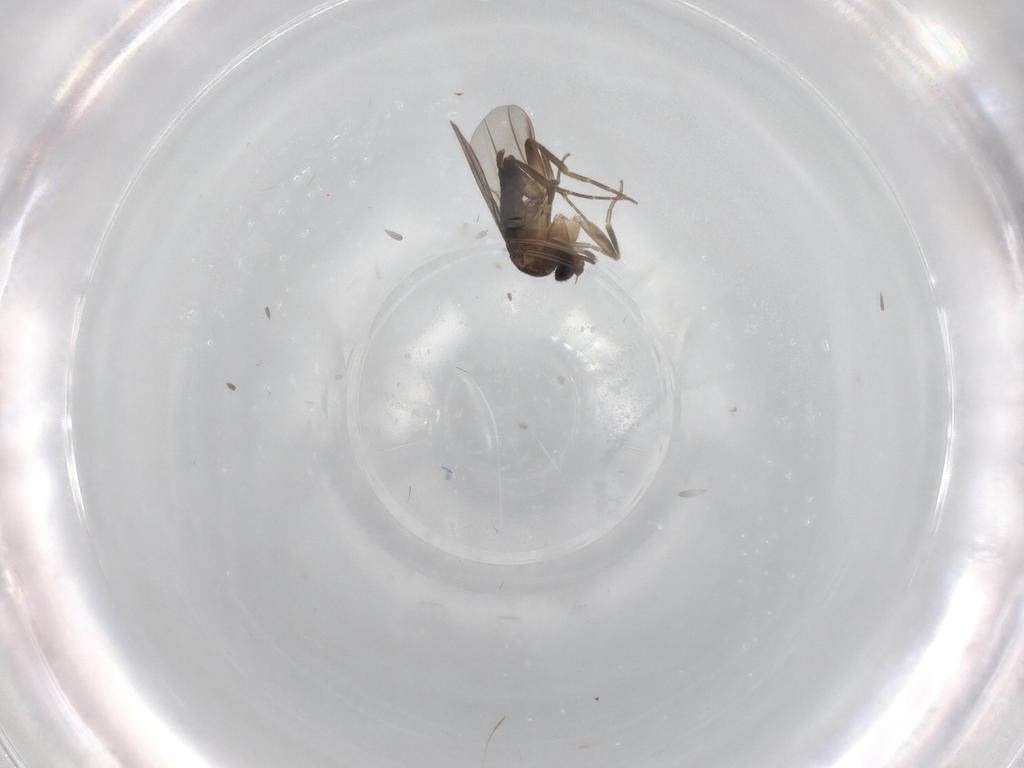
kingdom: Animalia
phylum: Arthropoda
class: Insecta
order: Diptera
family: Phoridae
